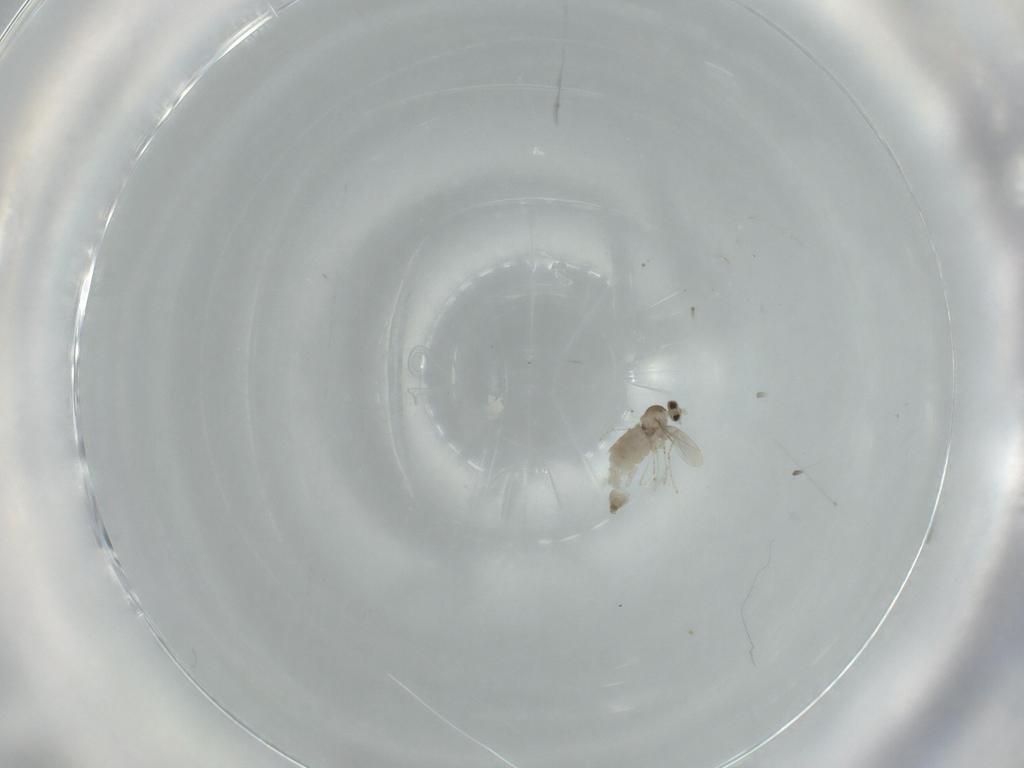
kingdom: Animalia
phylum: Arthropoda
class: Insecta
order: Diptera
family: Cecidomyiidae
